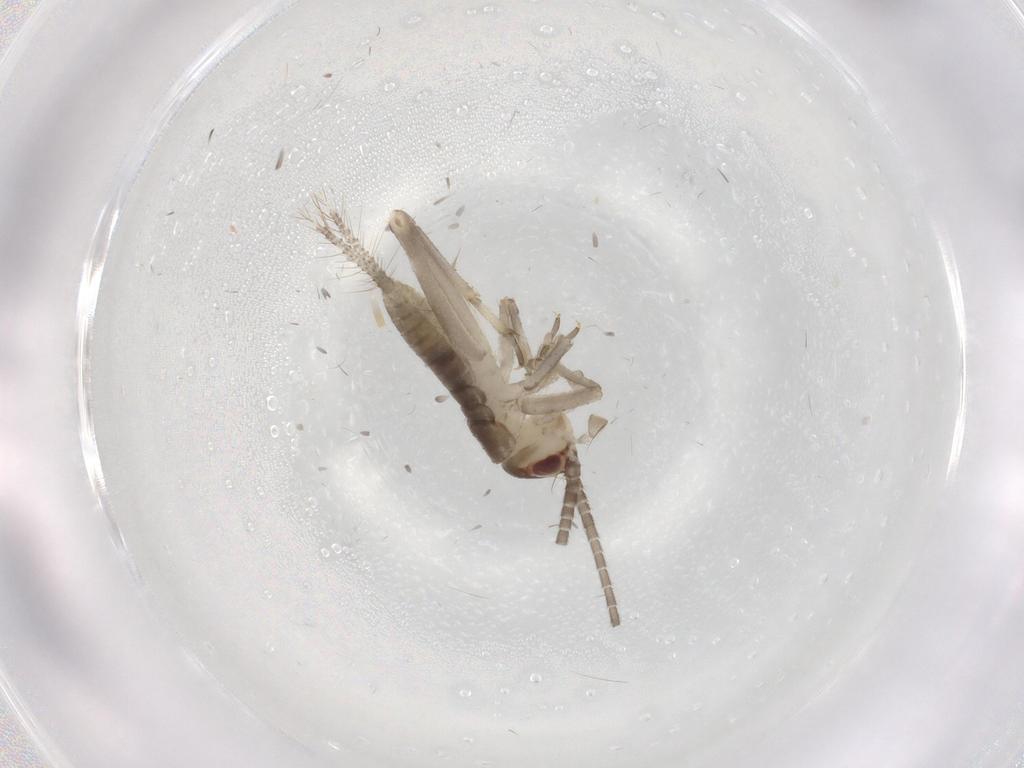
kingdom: Animalia
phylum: Arthropoda
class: Insecta
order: Orthoptera
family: Gryllidae
